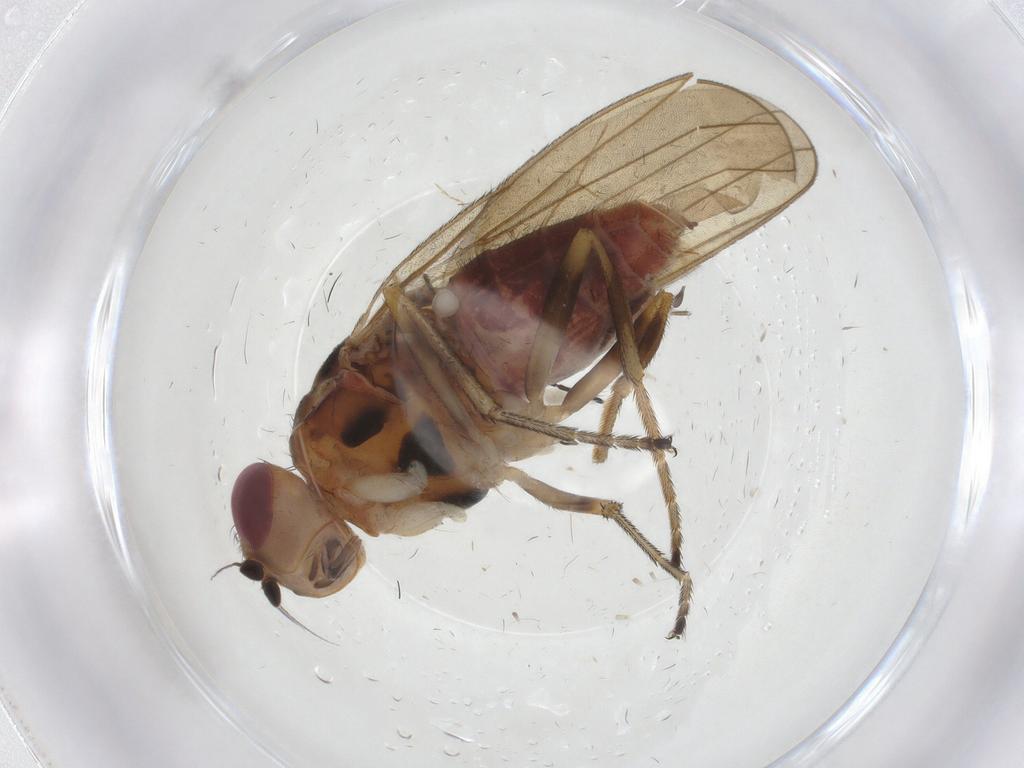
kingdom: Animalia
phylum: Arthropoda
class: Insecta
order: Diptera
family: Chloropidae
